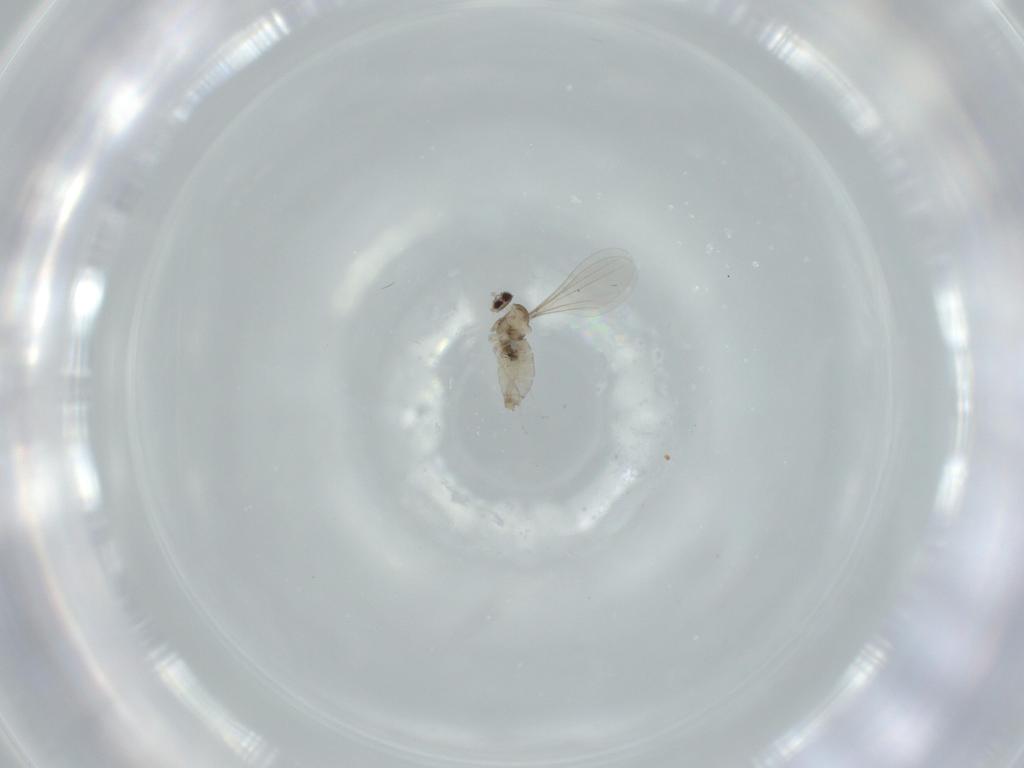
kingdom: Animalia
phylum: Arthropoda
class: Insecta
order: Diptera
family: Cecidomyiidae
